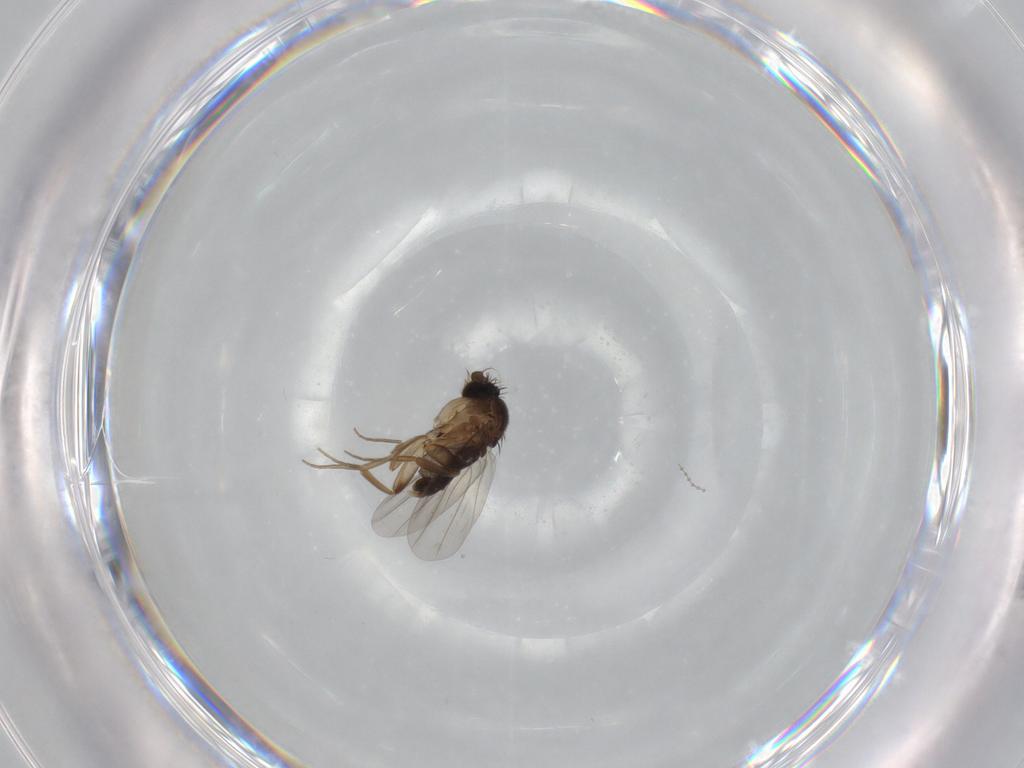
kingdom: Animalia
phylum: Arthropoda
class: Insecta
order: Diptera
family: Phoridae
